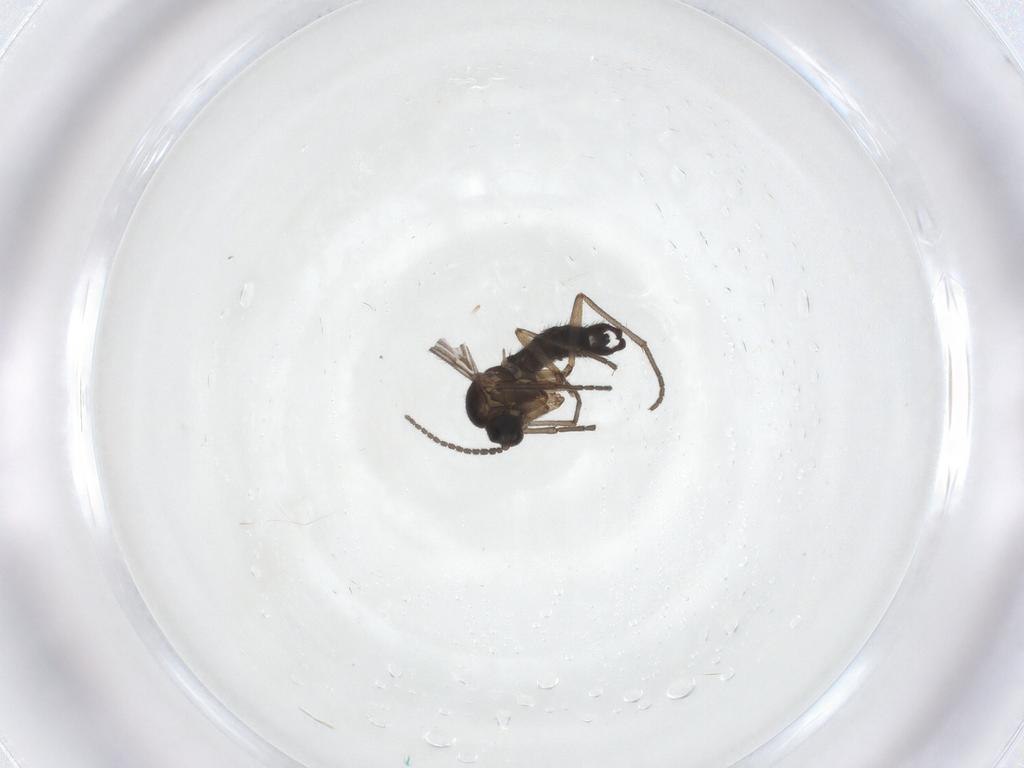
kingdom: Animalia
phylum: Arthropoda
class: Insecta
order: Diptera
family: Sciaridae
